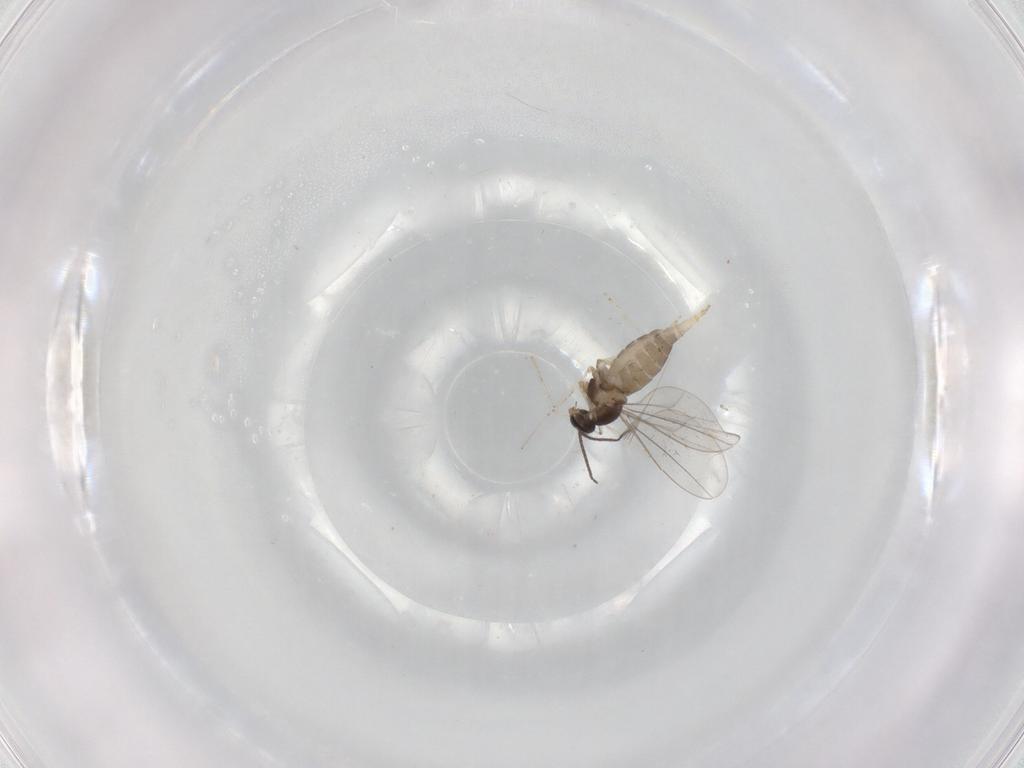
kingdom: Animalia
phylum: Arthropoda
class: Insecta
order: Diptera
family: Cecidomyiidae
